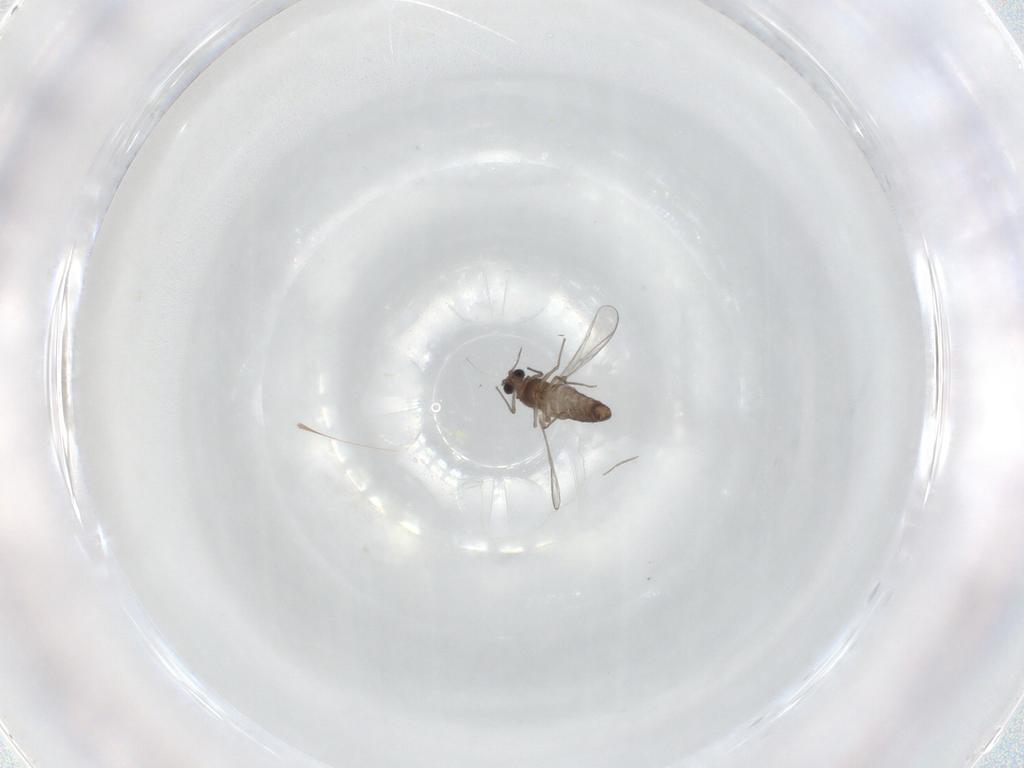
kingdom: Animalia
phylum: Arthropoda
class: Insecta
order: Diptera
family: Chironomidae
